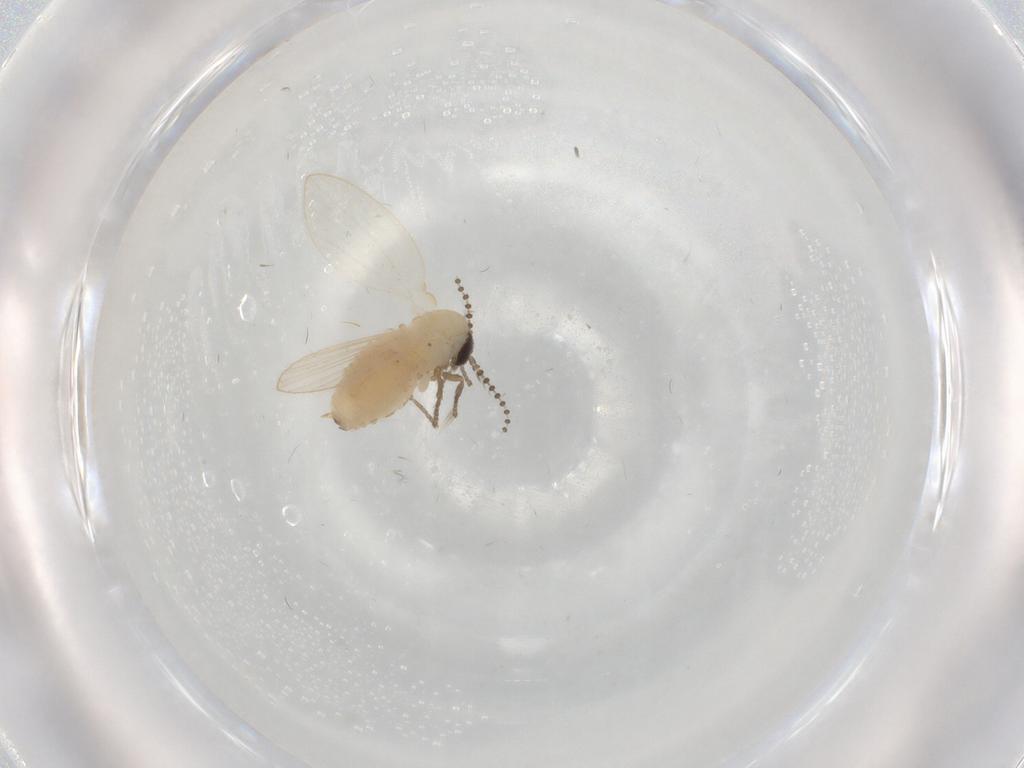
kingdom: Animalia
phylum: Arthropoda
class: Insecta
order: Diptera
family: Psychodidae
